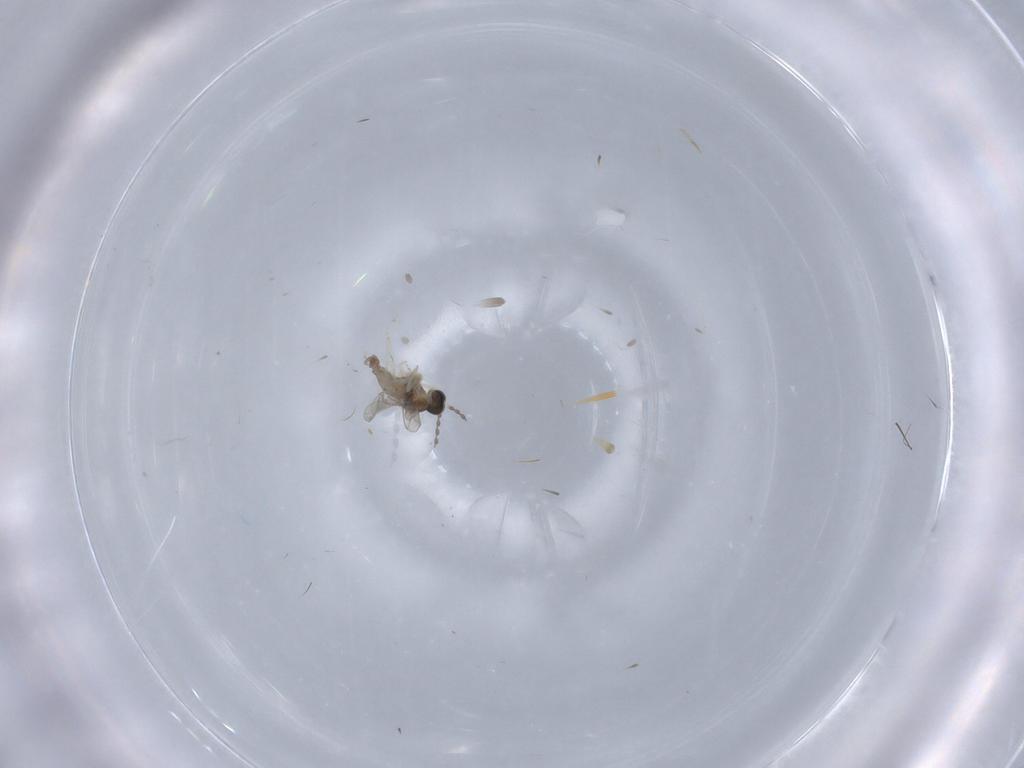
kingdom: Animalia
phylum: Arthropoda
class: Insecta
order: Diptera
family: Cecidomyiidae
